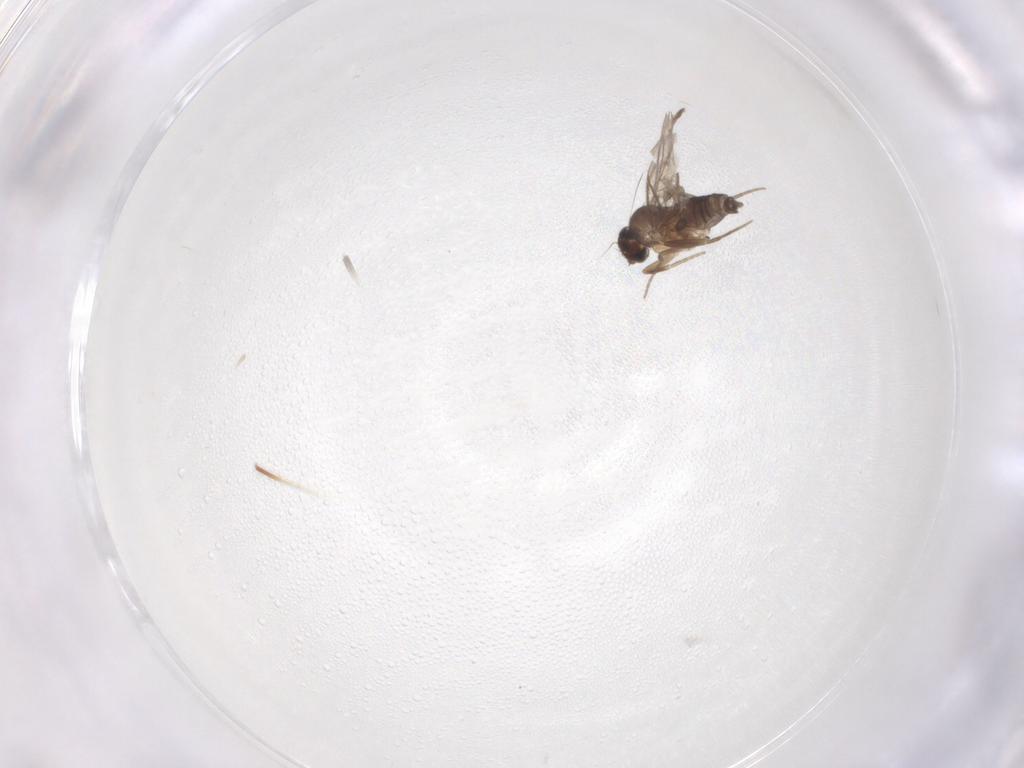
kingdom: Animalia
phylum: Arthropoda
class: Insecta
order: Diptera
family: Phoridae
